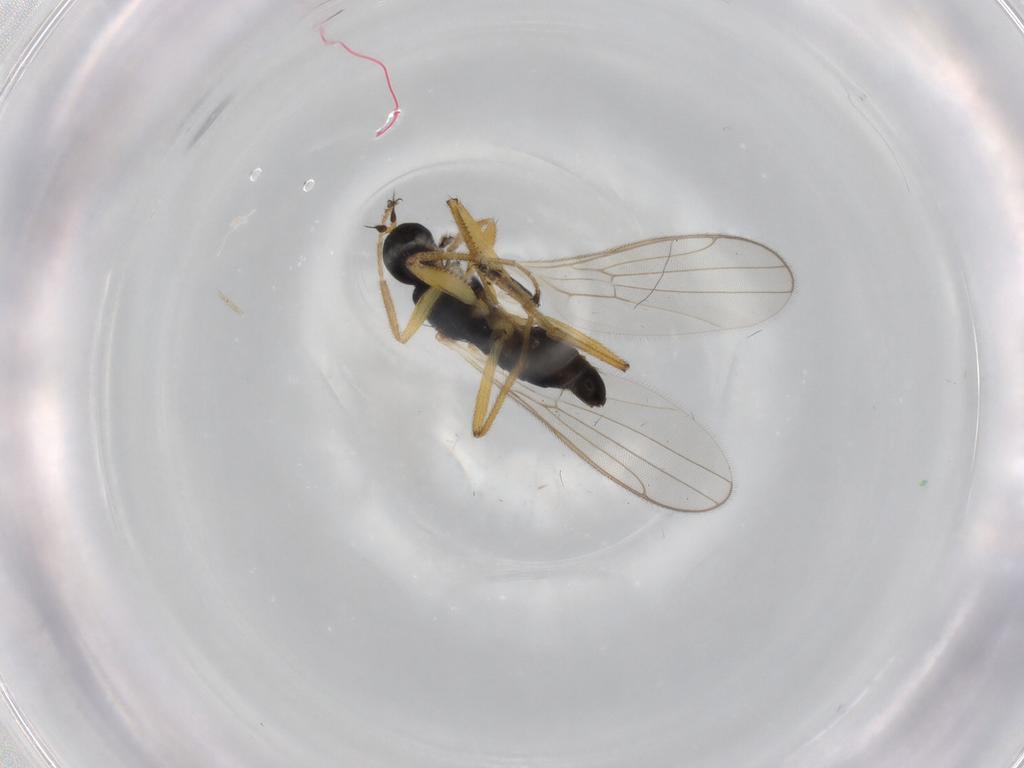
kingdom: Animalia
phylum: Arthropoda
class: Insecta
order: Diptera
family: Hybotidae
